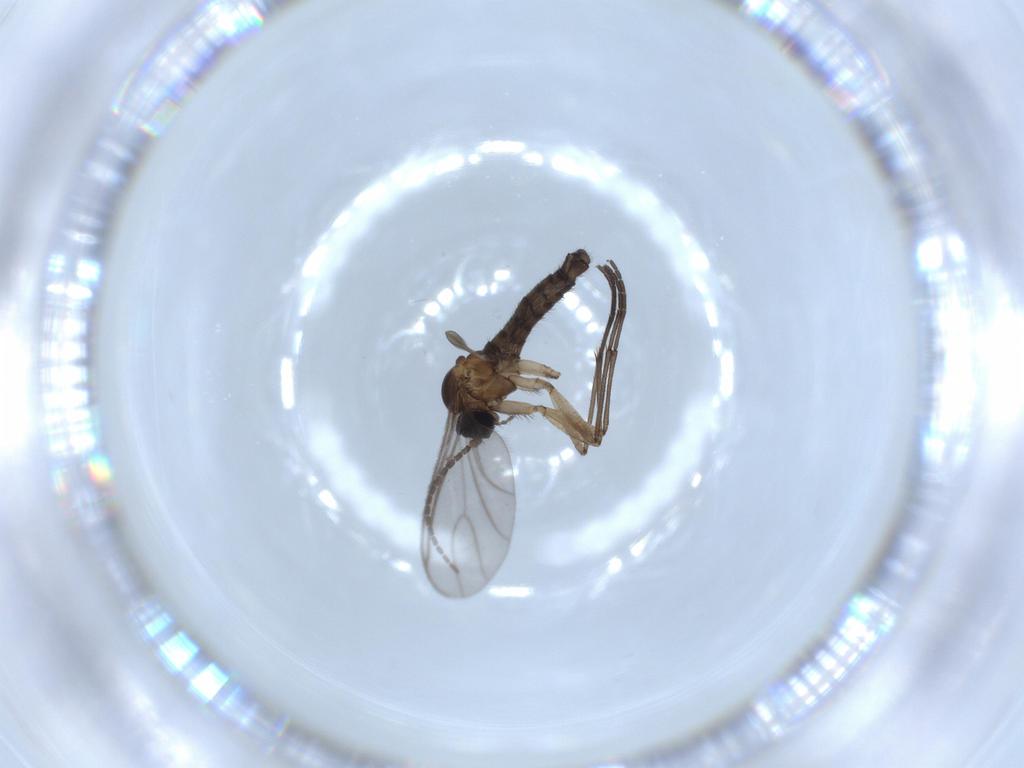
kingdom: Animalia
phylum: Arthropoda
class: Insecta
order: Diptera
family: Sciaridae
